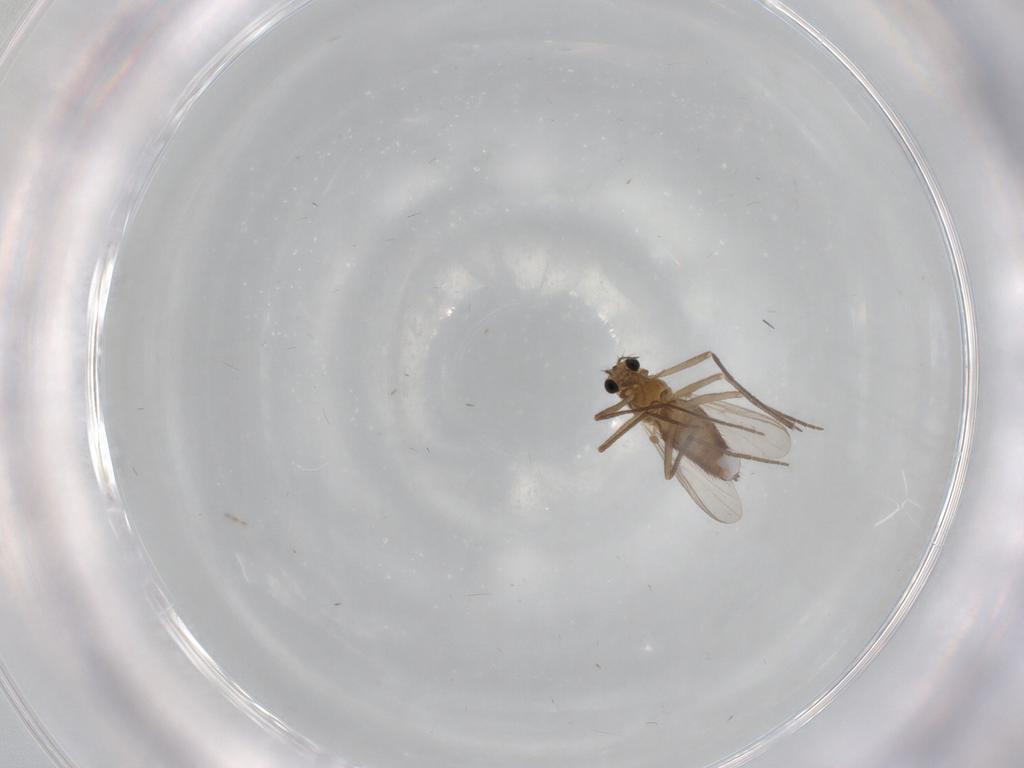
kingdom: Animalia
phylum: Arthropoda
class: Insecta
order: Diptera
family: Chironomidae
